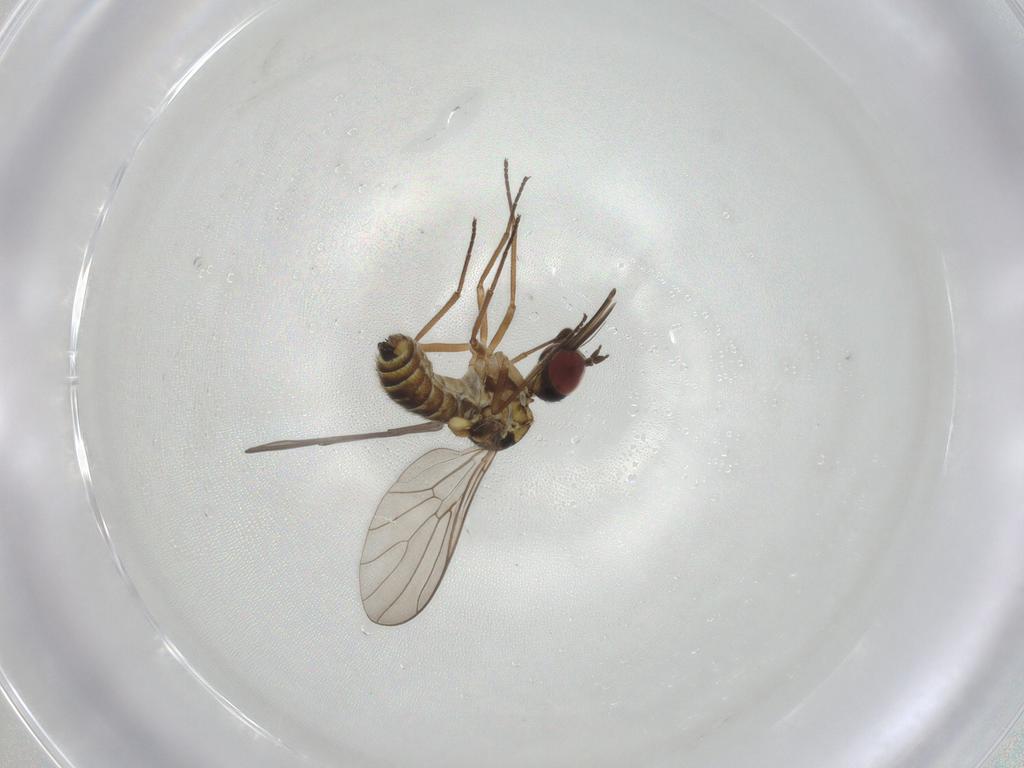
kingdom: Animalia
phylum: Arthropoda
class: Insecta
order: Diptera
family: Bombyliidae
